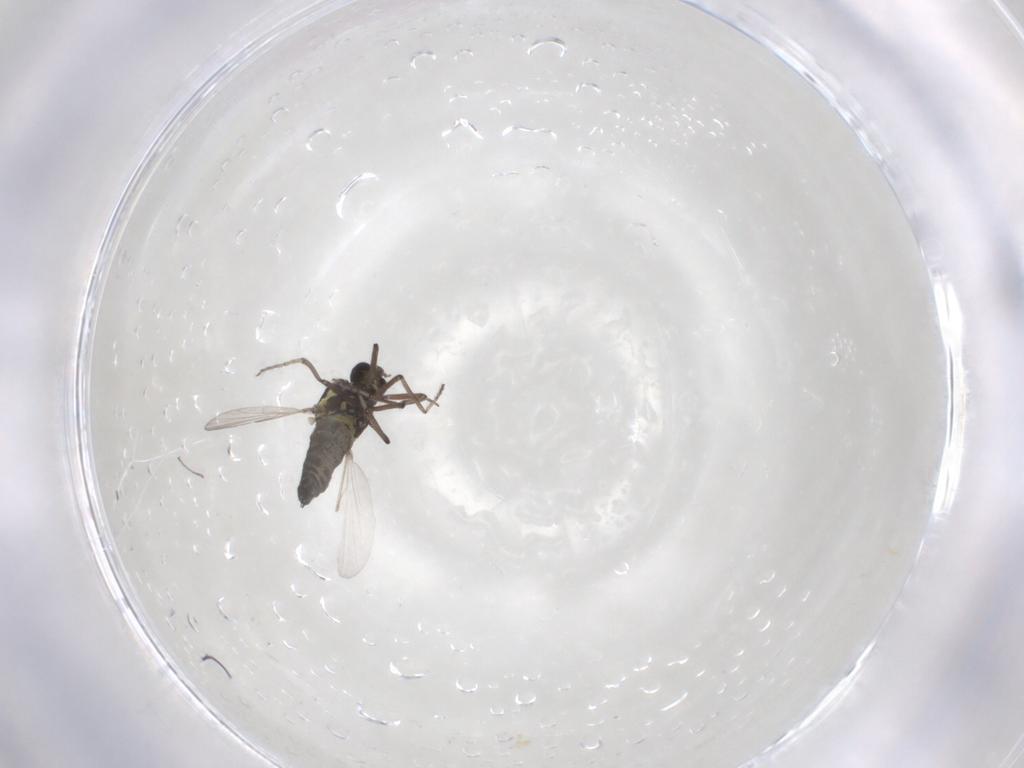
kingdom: Animalia
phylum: Arthropoda
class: Insecta
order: Diptera
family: Ceratopogonidae
